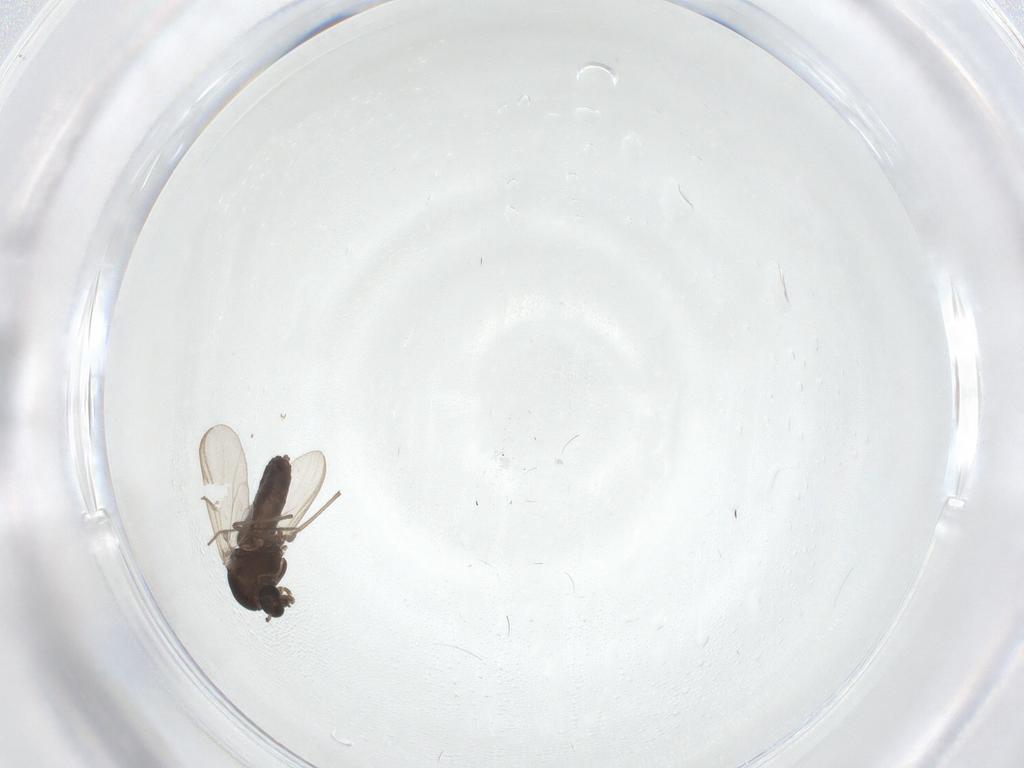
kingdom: Animalia
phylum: Arthropoda
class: Insecta
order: Diptera
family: Chironomidae
